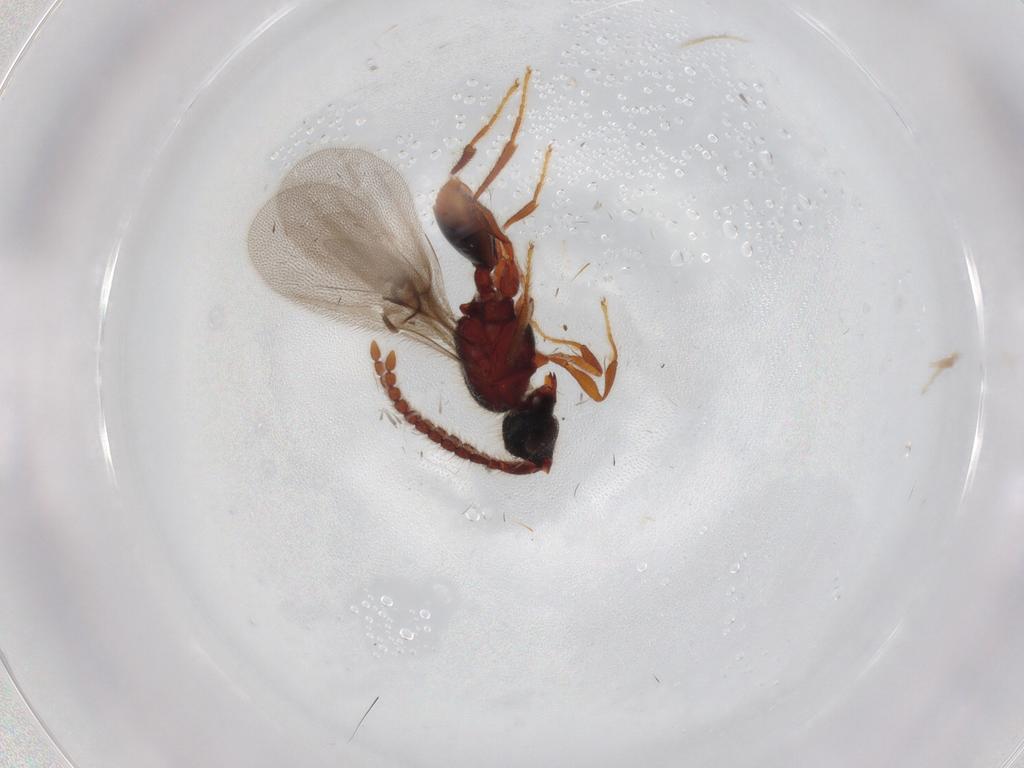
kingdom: Animalia
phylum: Arthropoda
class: Insecta
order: Hymenoptera
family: Diapriidae
